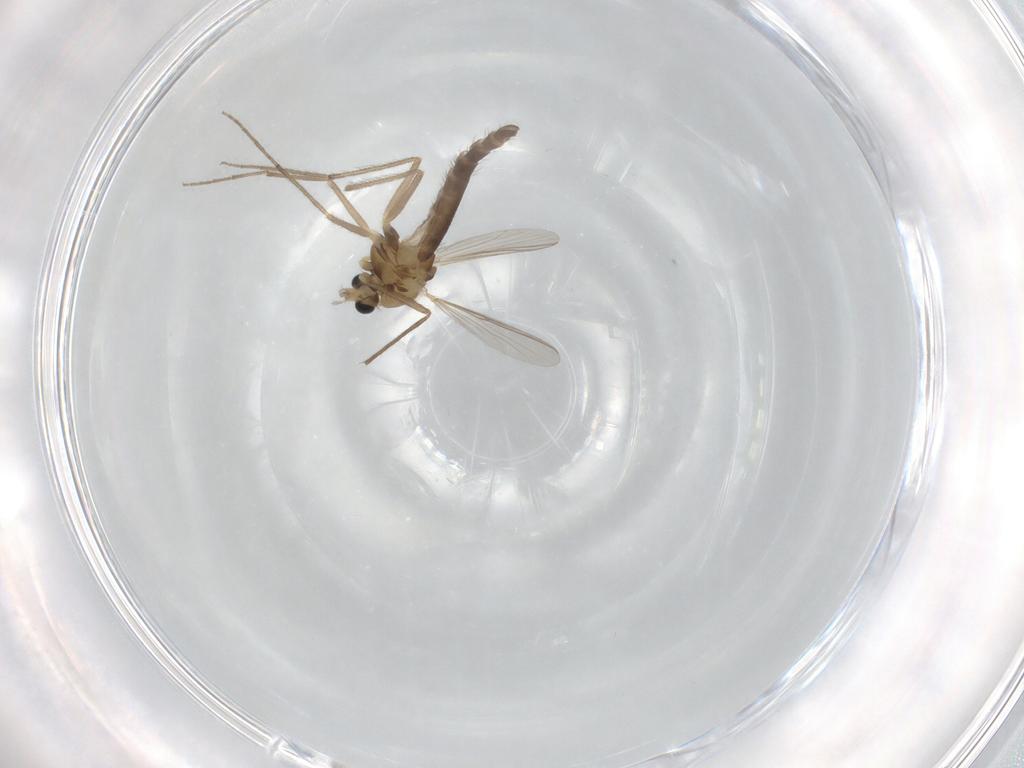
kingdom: Animalia
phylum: Arthropoda
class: Insecta
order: Diptera
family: Chironomidae
